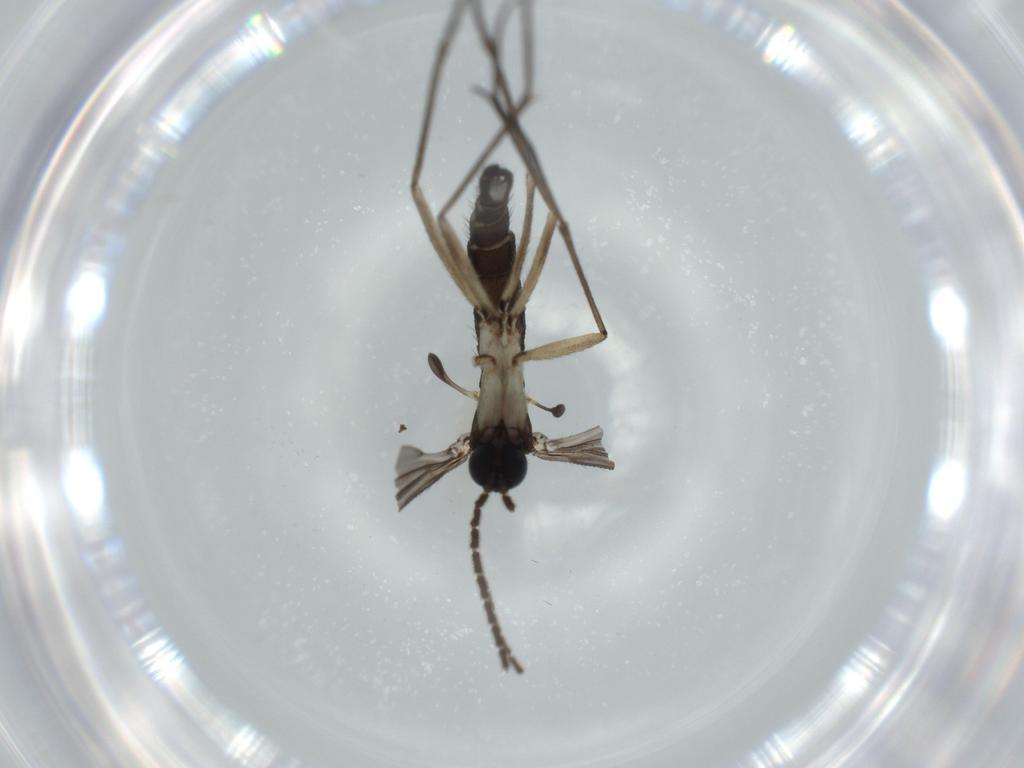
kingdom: Animalia
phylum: Arthropoda
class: Insecta
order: Diptera
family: Sciaridae
